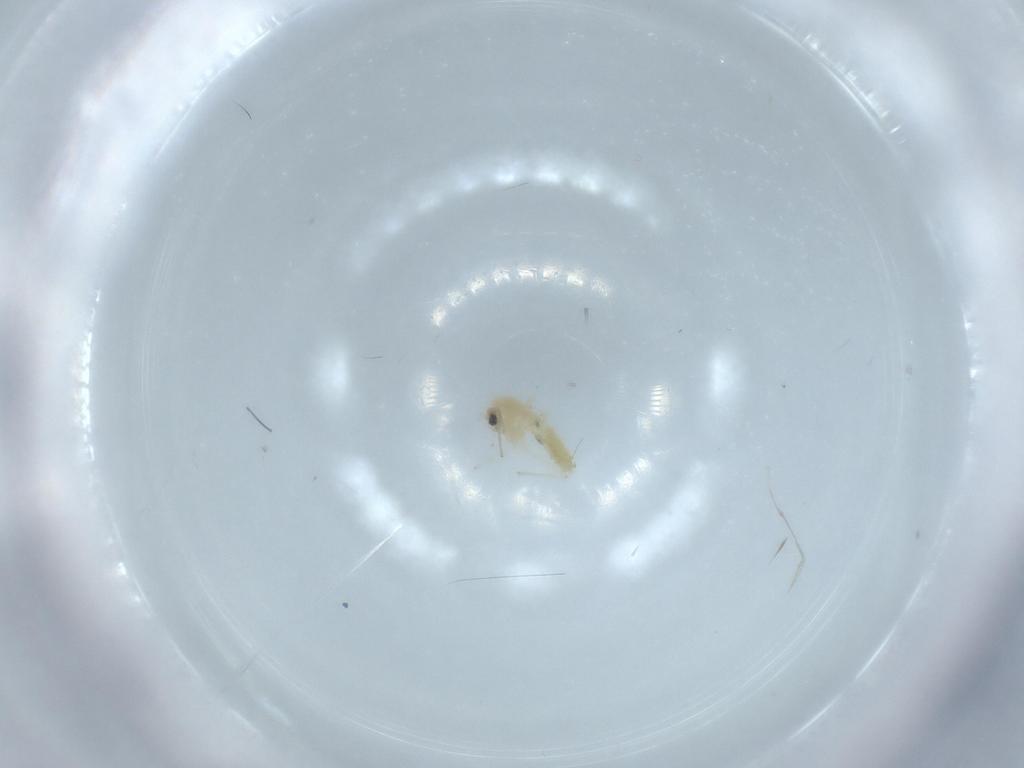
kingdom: Animalia
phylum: Arthropoda
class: Insecta
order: Diptera
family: Chironomidae
